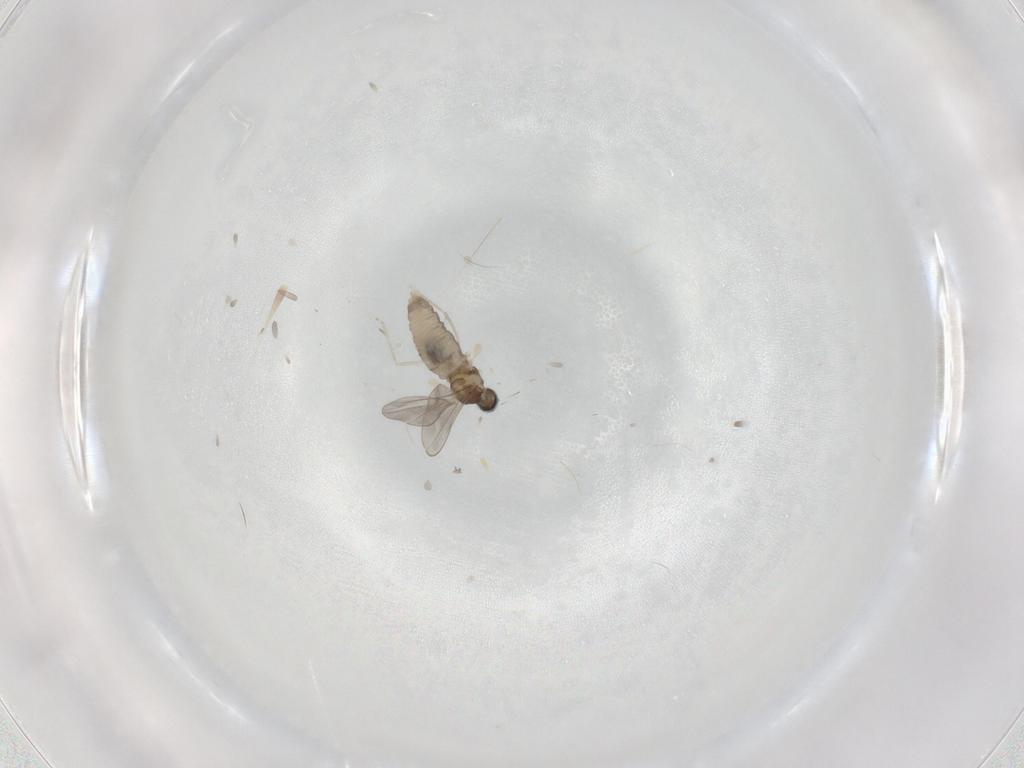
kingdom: Animalia
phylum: Arthropoda
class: Insecta
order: Diptera
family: Cecidomyiidae
